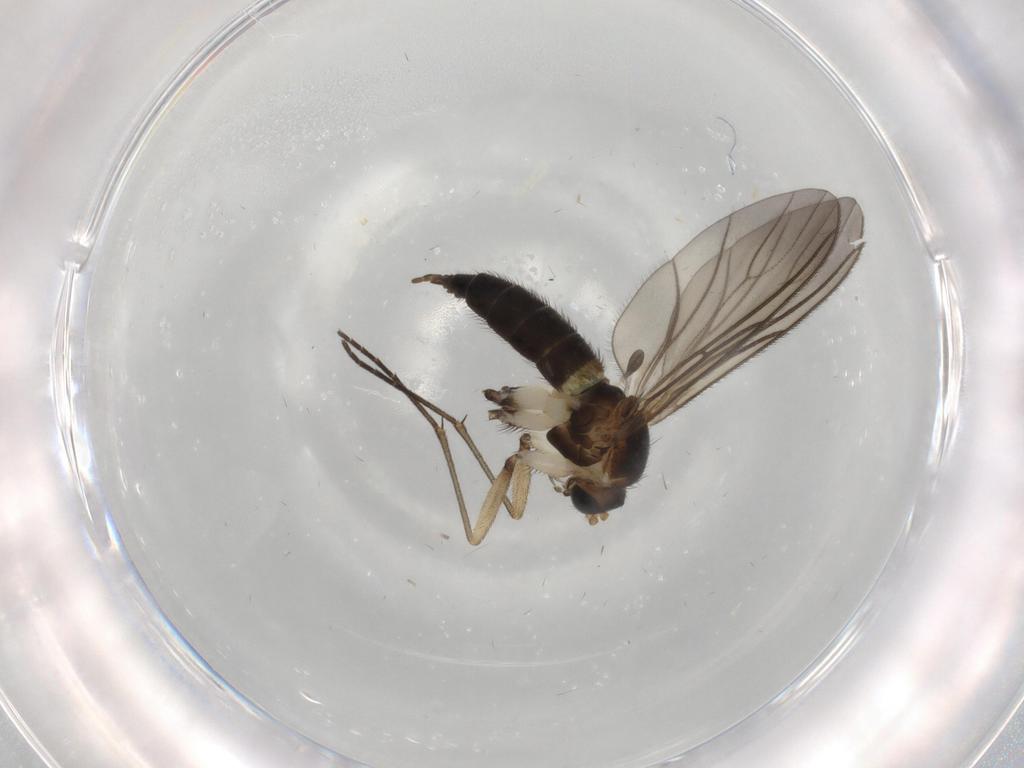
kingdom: Animalia
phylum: Arthropoda
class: Insecta
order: Diptera
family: Sciaridae
